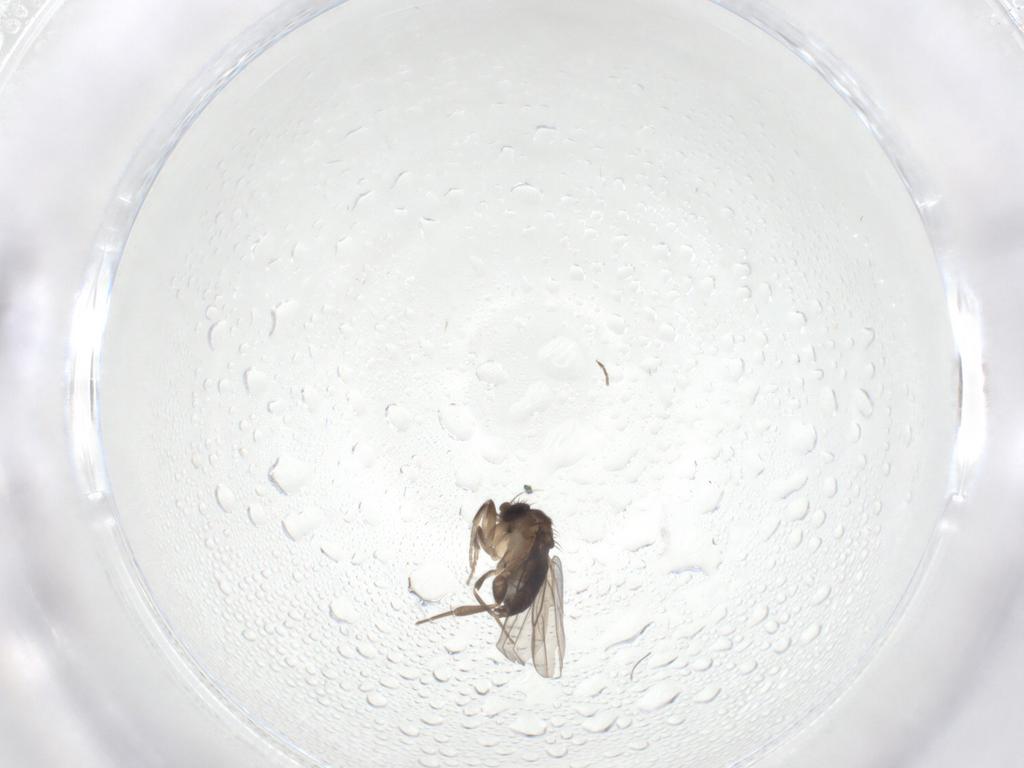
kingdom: Animalia
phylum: Arthropoda
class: Insecta
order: Diptera
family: Phoridae
